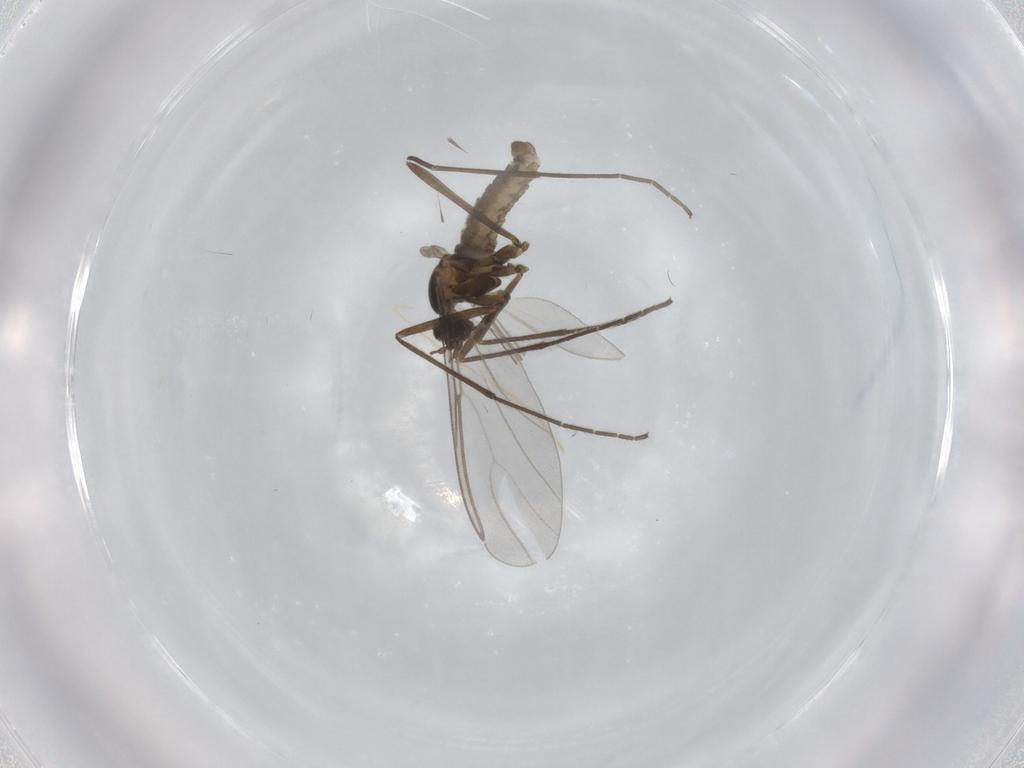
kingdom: Animalia
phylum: Arthropoda
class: Insecta
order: Diptera
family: Cecidomyiidae
